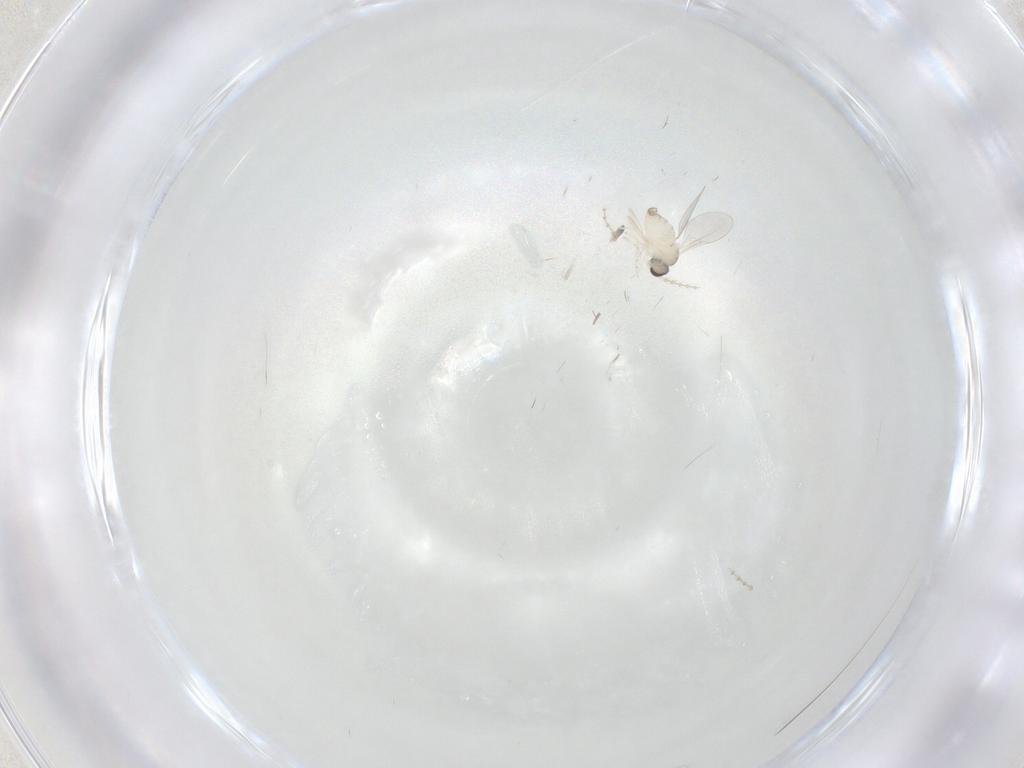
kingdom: Animalia
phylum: Arthropoda
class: Insecta
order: Diptera
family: Cecidomyiidae
